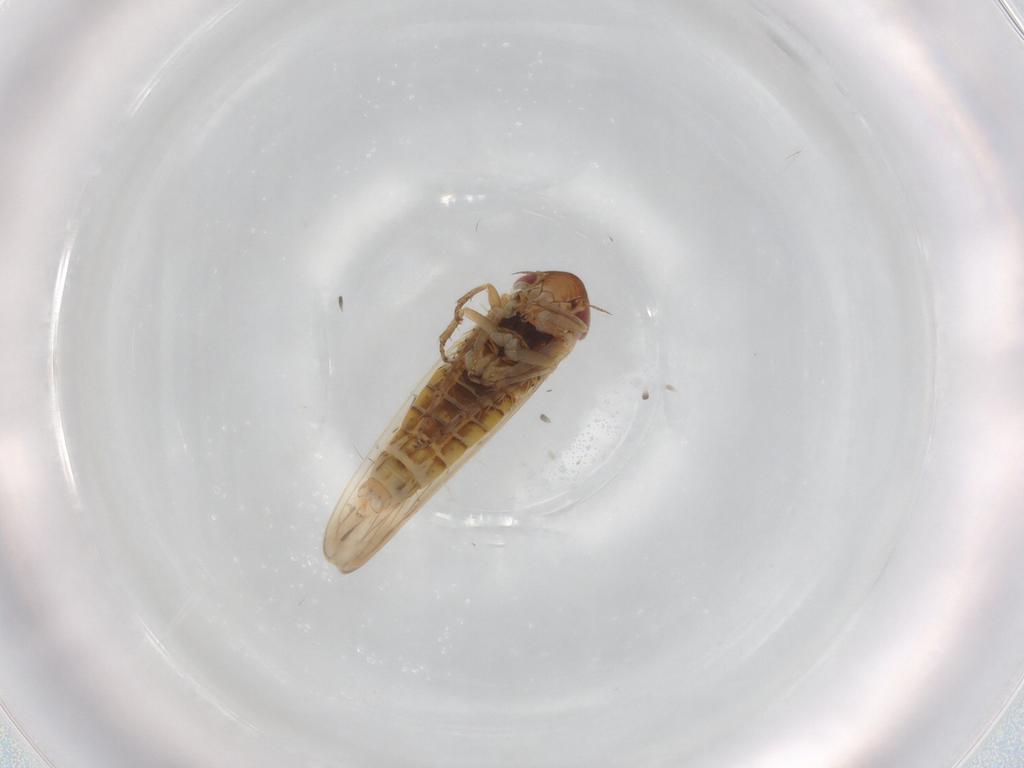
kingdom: Animalia
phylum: Arthropoda
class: Insecta
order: Hemiptera
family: Cicadellidae
